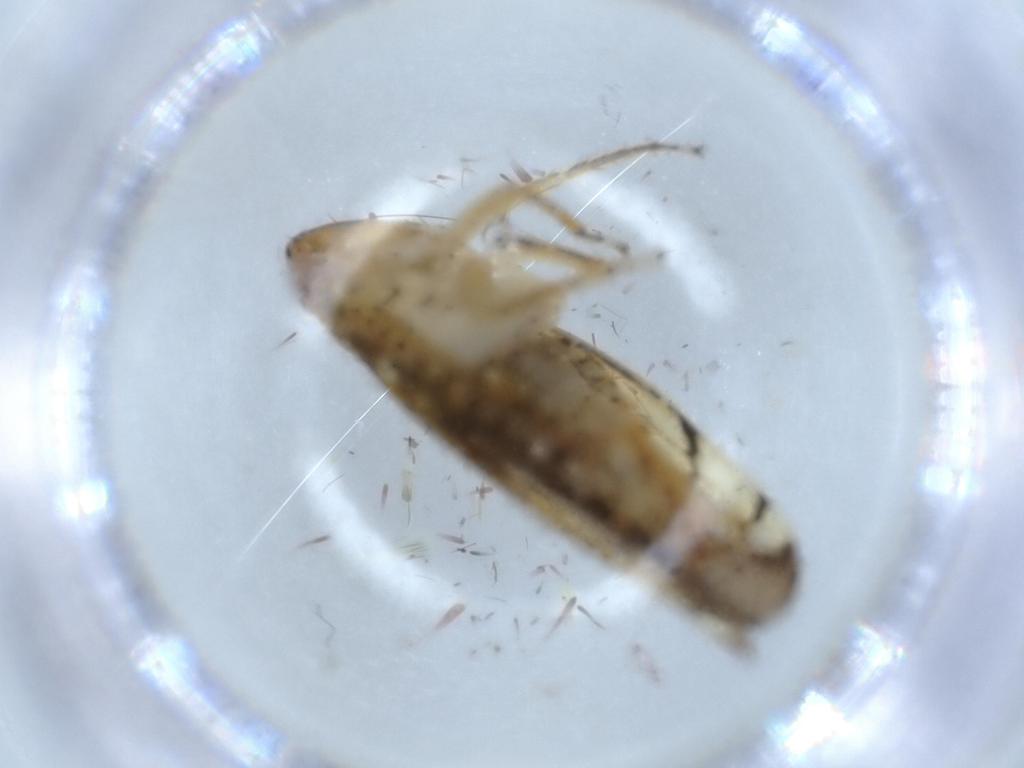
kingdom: Animalia
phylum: Arthropoda
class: Insecta
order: Hemiptera
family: Cicadellidae
